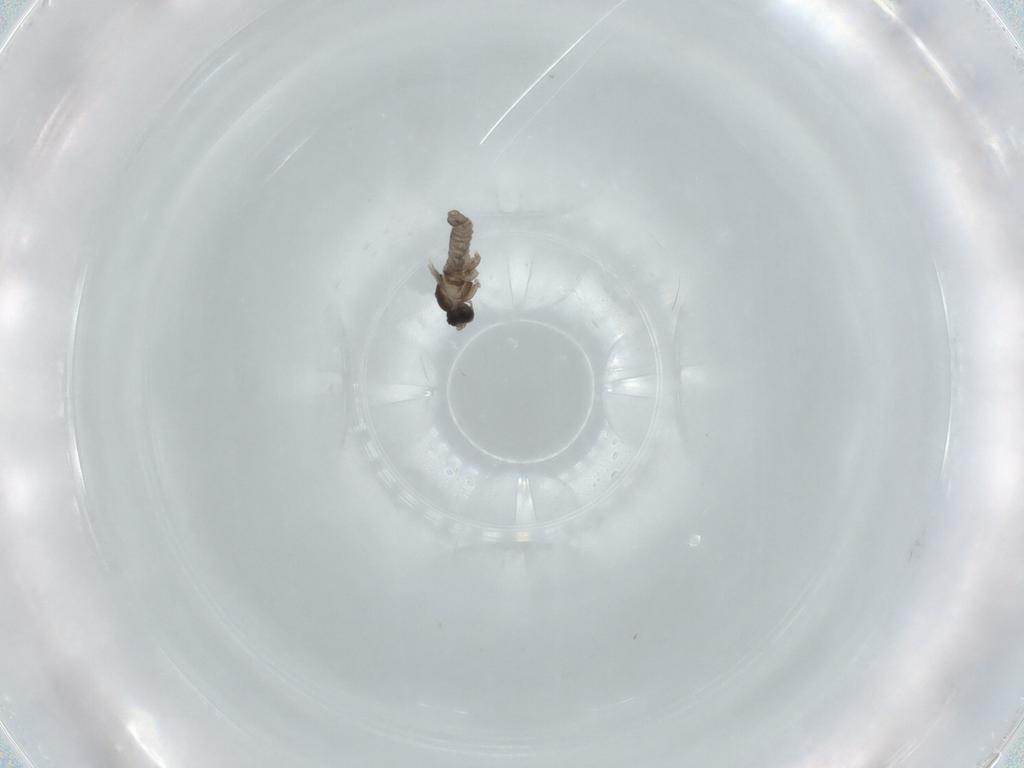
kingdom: Animalia
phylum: Arthropoda
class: Insecta
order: Diptera
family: Cecidomyiidae
